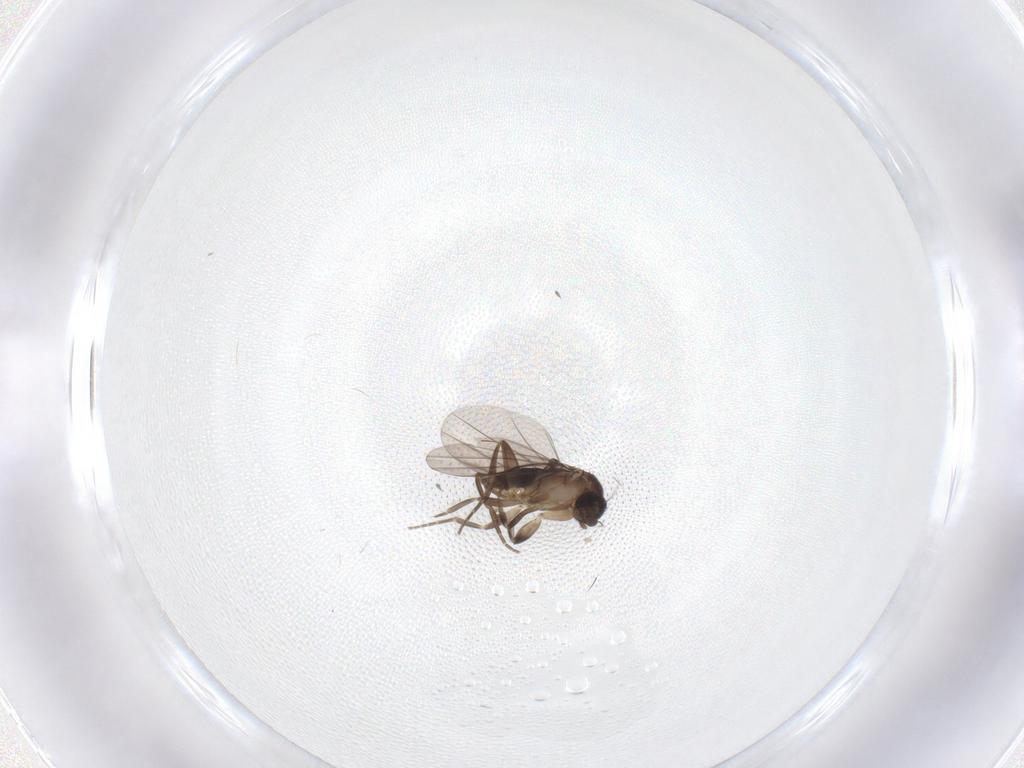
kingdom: Animalia
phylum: Arthropoda
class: Insecta
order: Diptera
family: Phoridae
